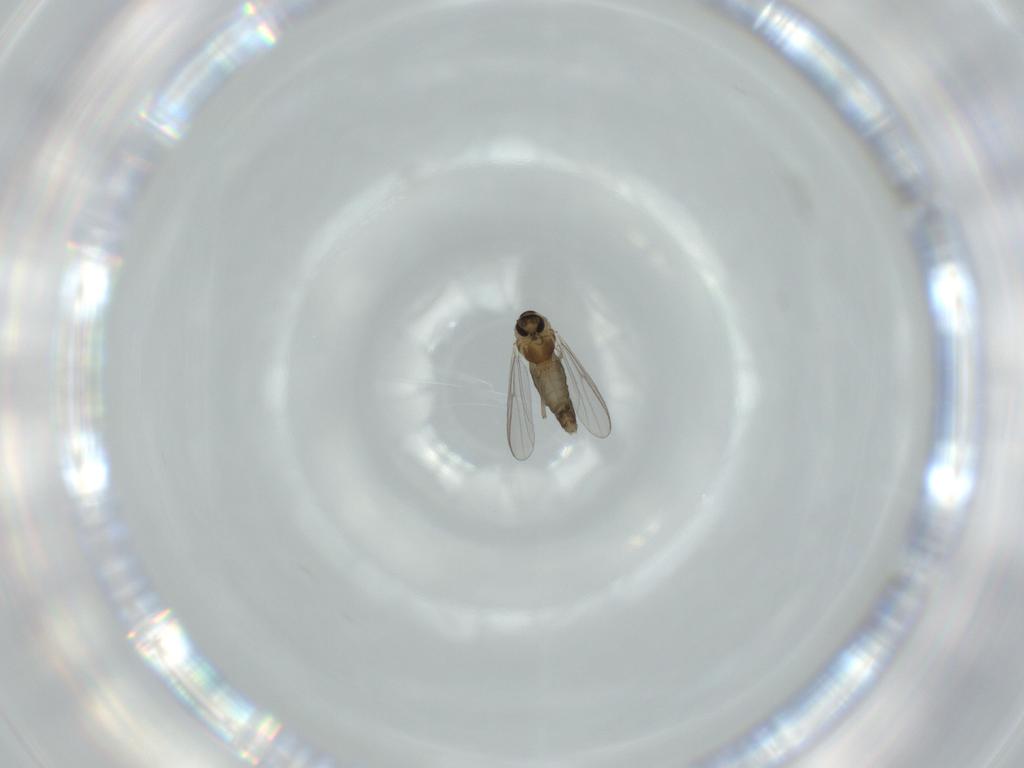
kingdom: Animalia
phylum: Arthropoda
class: Insecta
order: Diptera
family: Chironomidae
